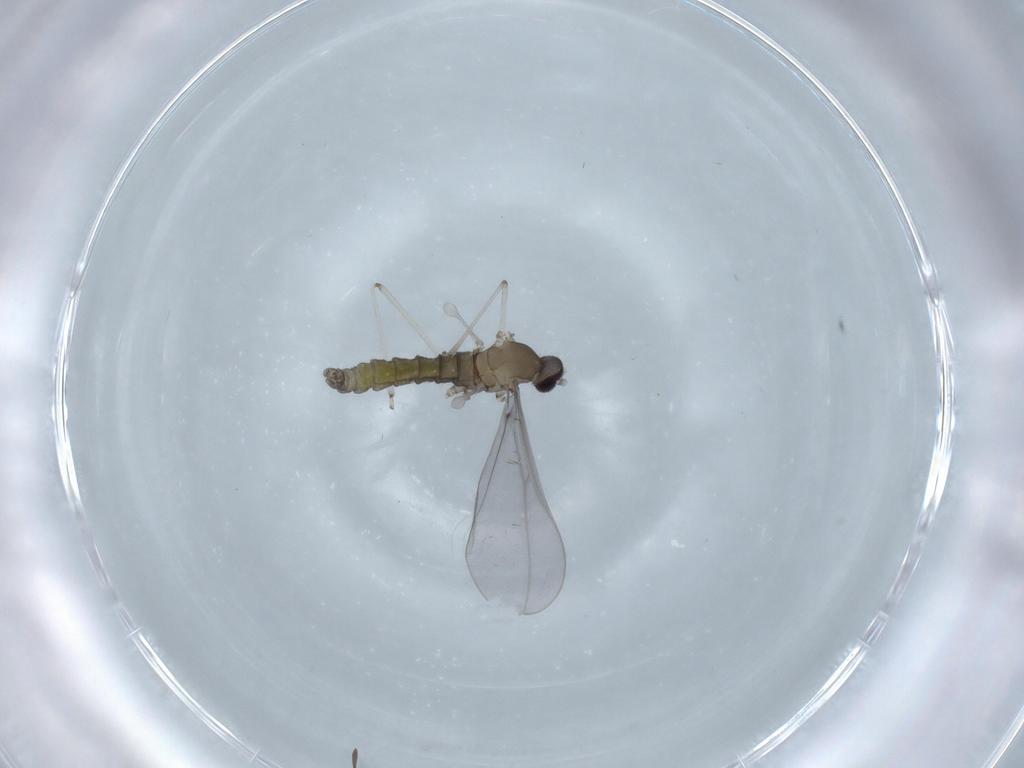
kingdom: Animalia
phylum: Arthropoda
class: Insecta
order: Diptera
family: Cecidomyiidae
